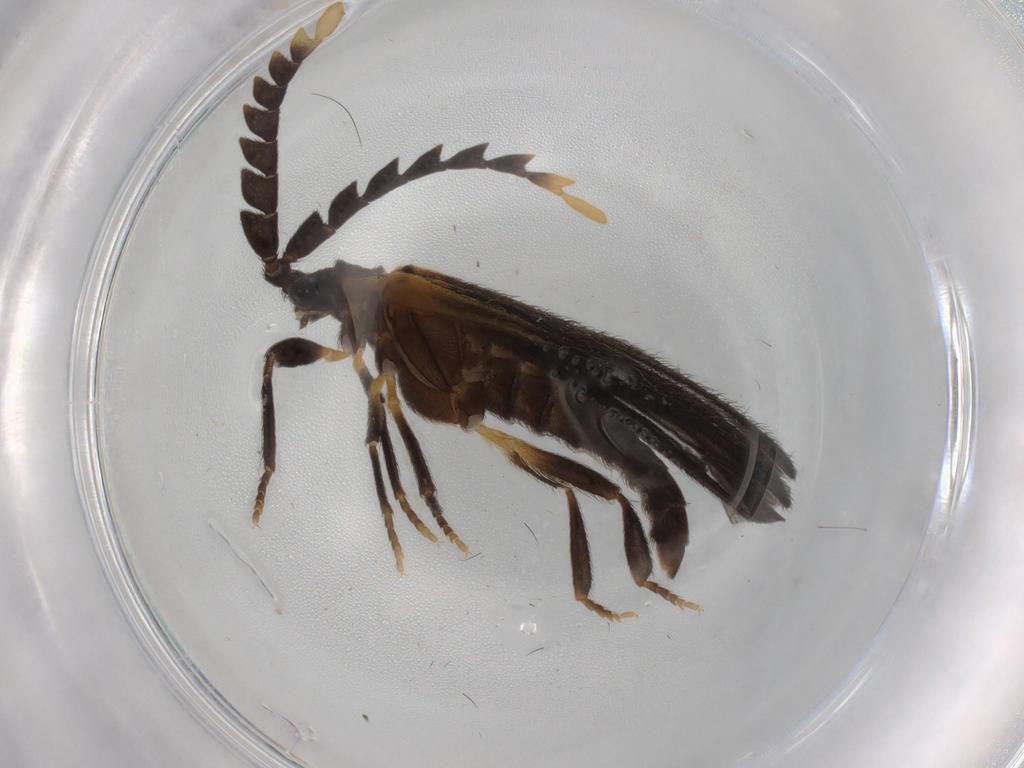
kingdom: Animalia
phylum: Arthropoda
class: Insecta
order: Coleoptera
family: Lycidae
